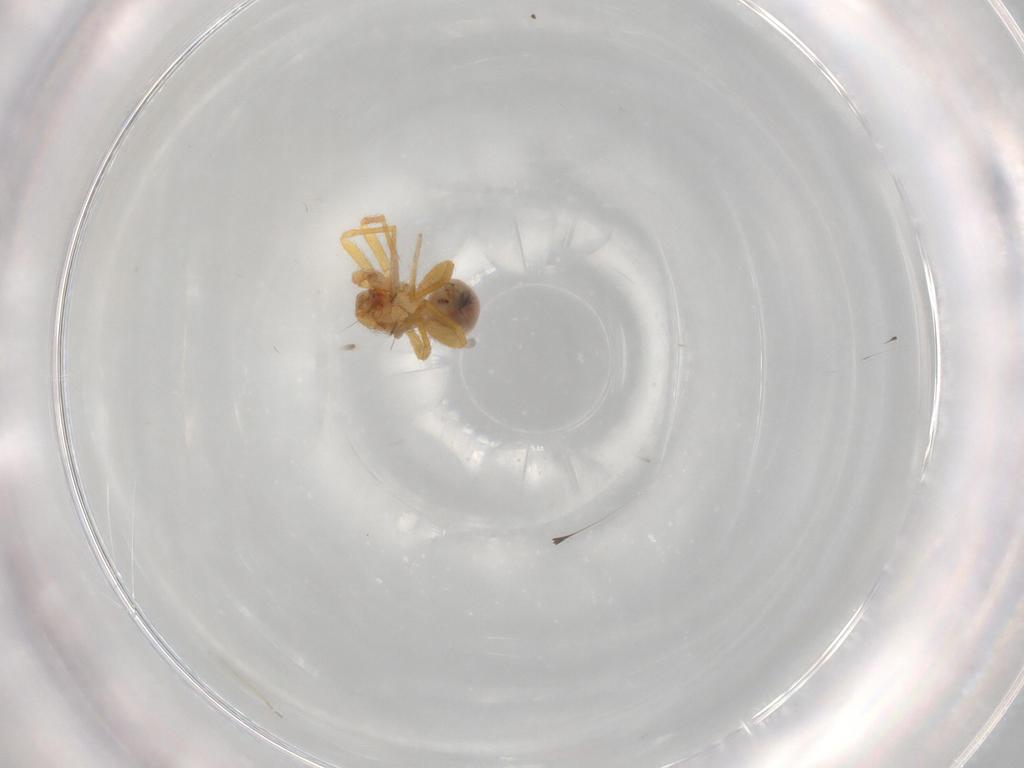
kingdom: Animalia
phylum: Arthropoda
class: Arachnida
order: Araneae
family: Oonopidae
